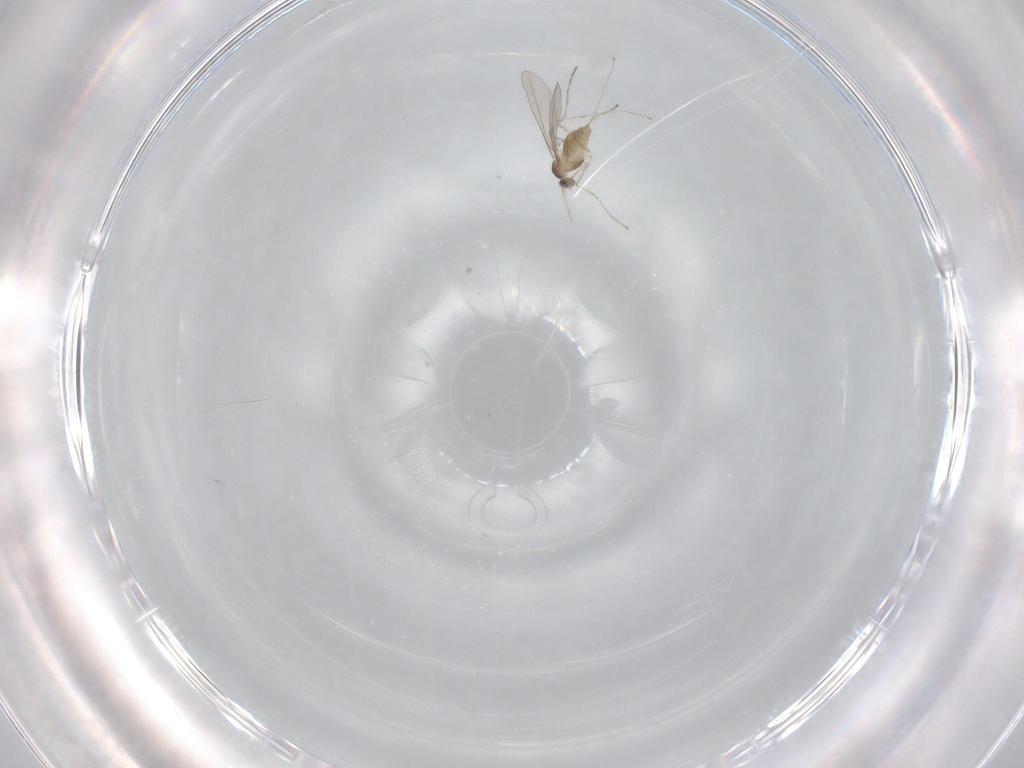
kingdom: Animalia
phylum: Arthropoda
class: Insecta
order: Diptera
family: Cecidomyiidae
